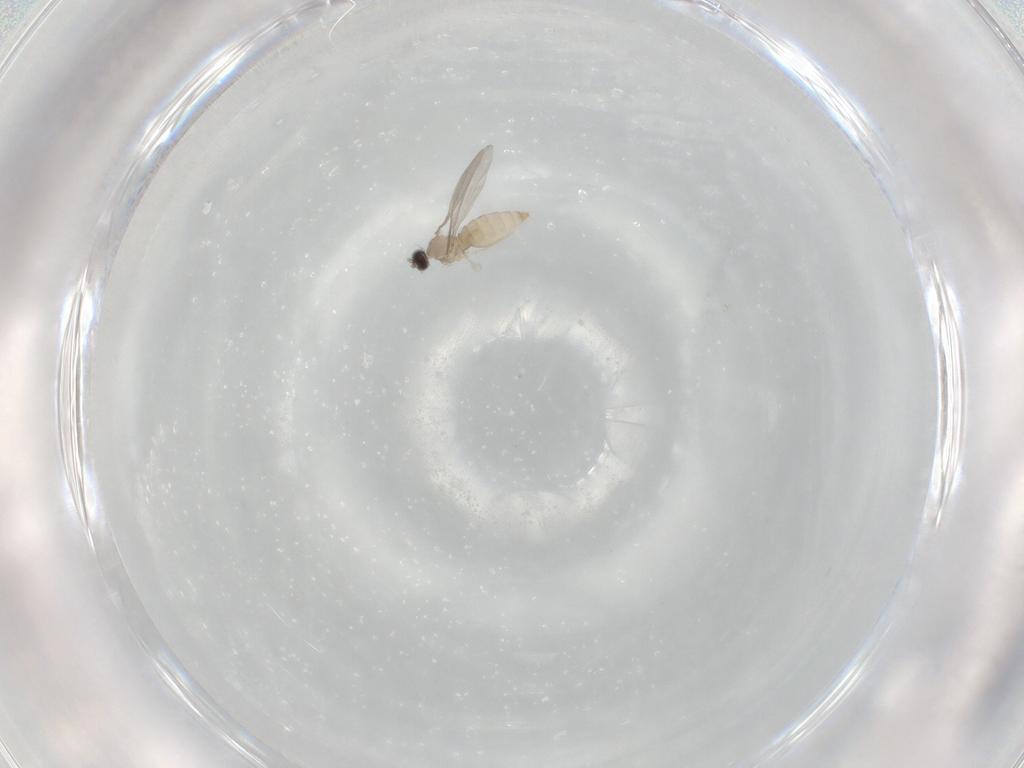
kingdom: Animalia
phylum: Arthropoda
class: Insecta
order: Diptera
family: Cecidomyiidae
